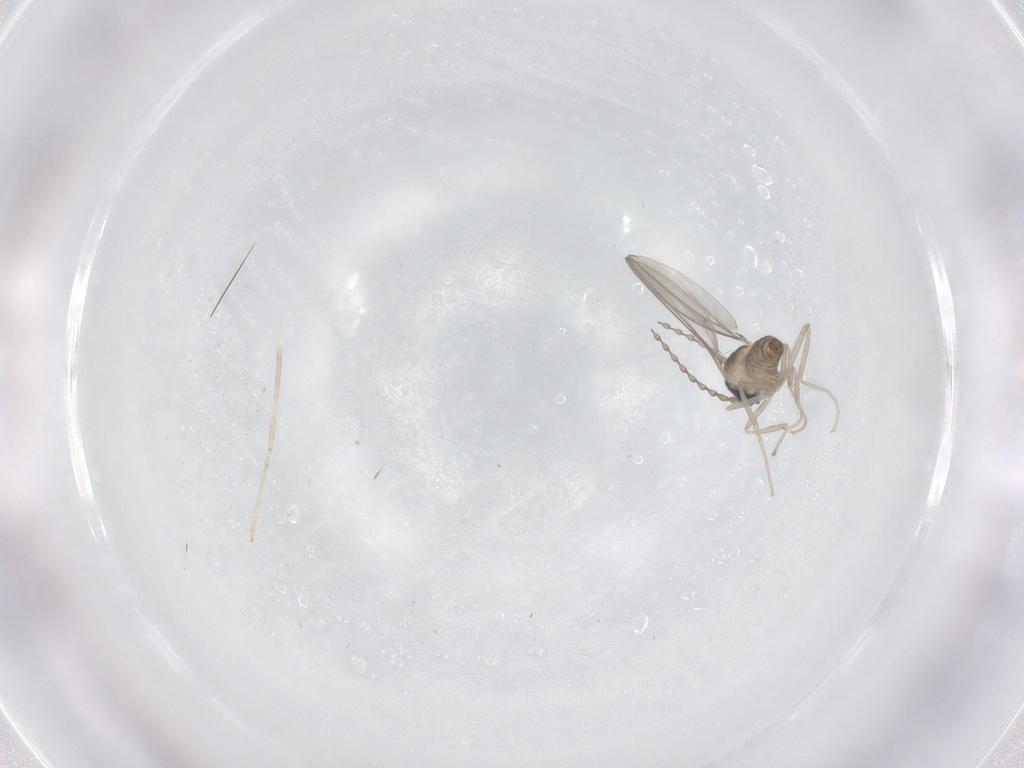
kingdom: Animalia
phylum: Arthropoda
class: Insecta
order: Diptera
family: Cecidomyiidae
